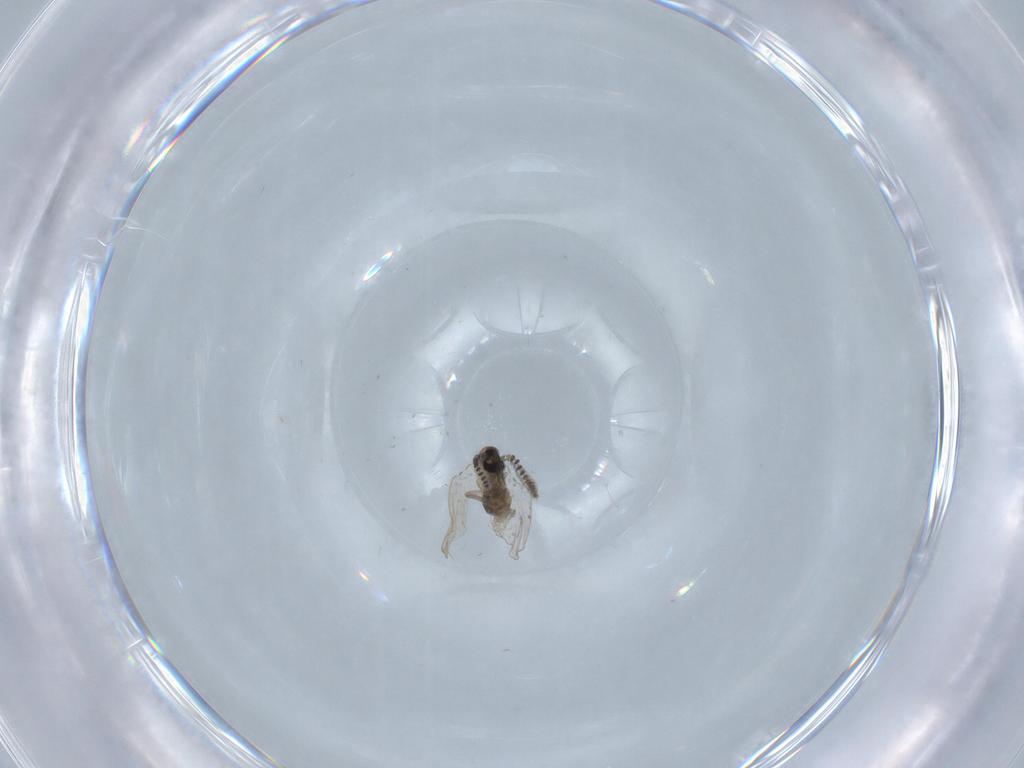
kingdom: Animalia
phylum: Arthropoda
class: Insecta
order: Diptera
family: Psychodidae
